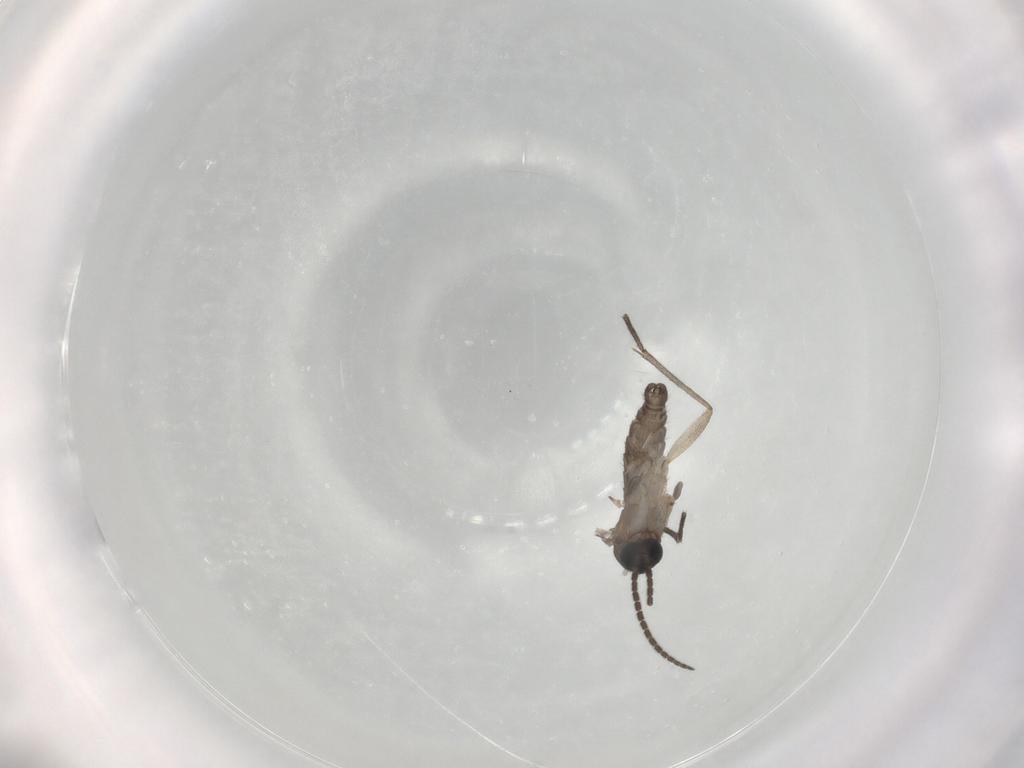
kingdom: Animalia
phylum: Arthropoda
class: Insecta
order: Diptera
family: Sciaridae
